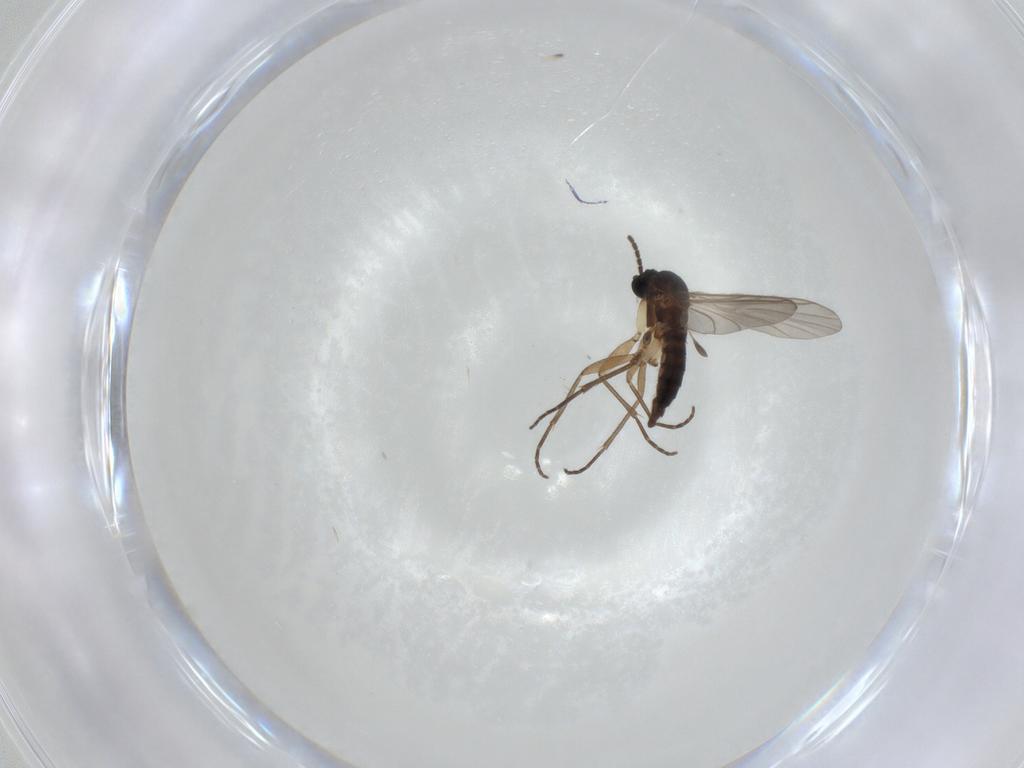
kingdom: Animalia
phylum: Arthropoda
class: Insecta
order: Diptera
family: Sciaridae
